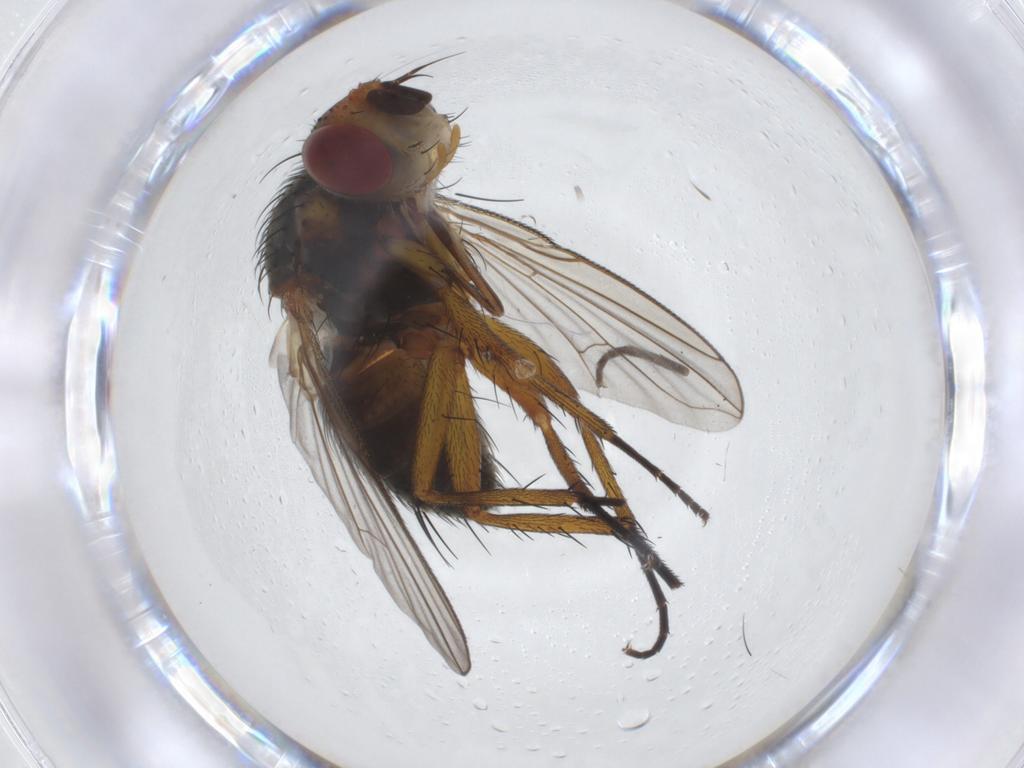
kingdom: Animalia
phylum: Arthropoda
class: Insecta
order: Diptera
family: Tachinidae
